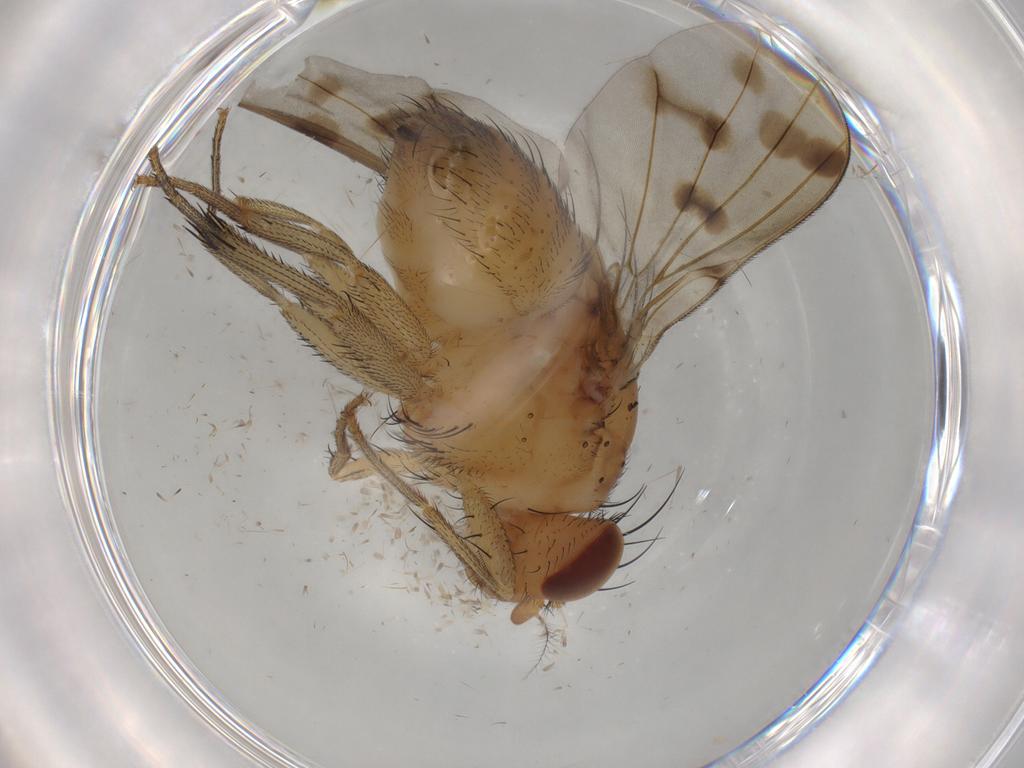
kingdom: Animalia
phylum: Arthropoda
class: Insecta
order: Diptera
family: Lauxaniidae
